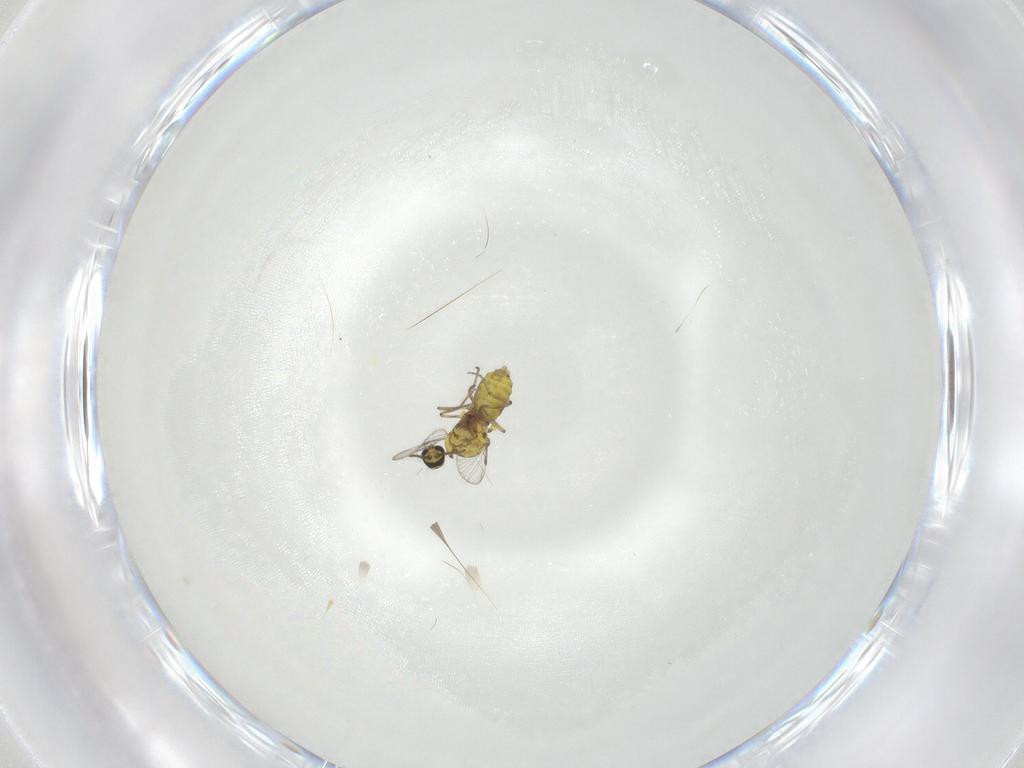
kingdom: Animalia
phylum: Arthropoda
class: Insecta
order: Diptera
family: Ceratopogonidae
